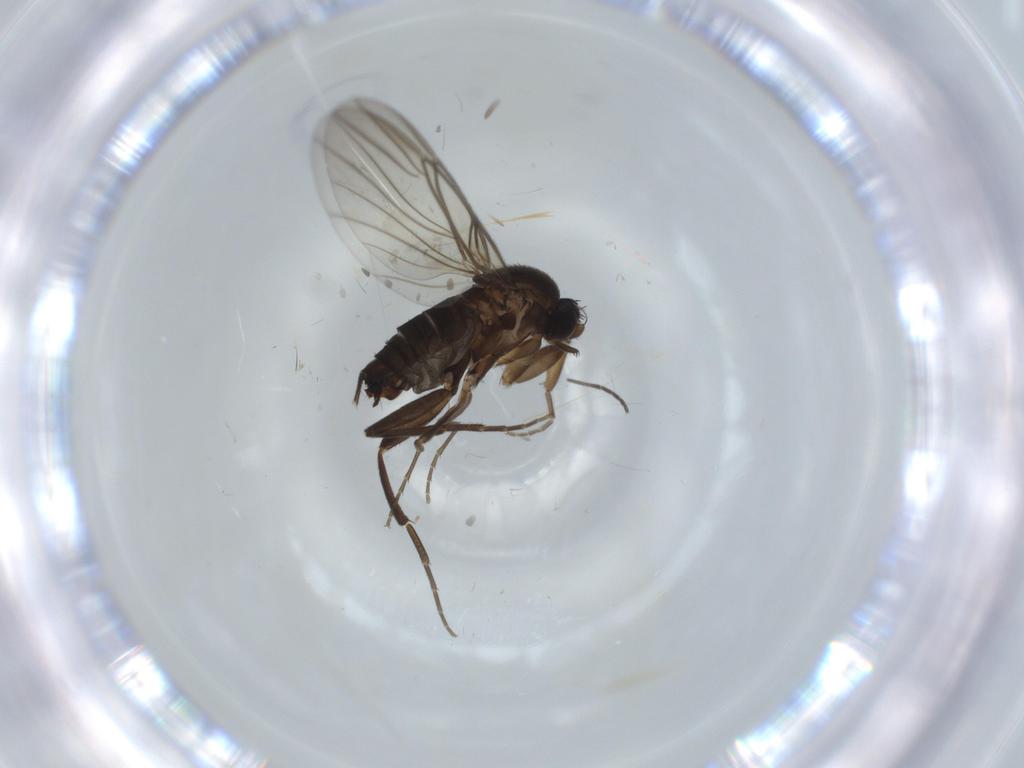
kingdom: Animalia
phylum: Arthropoda
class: Insecta
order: Diptera
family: Cecidomyiidae
